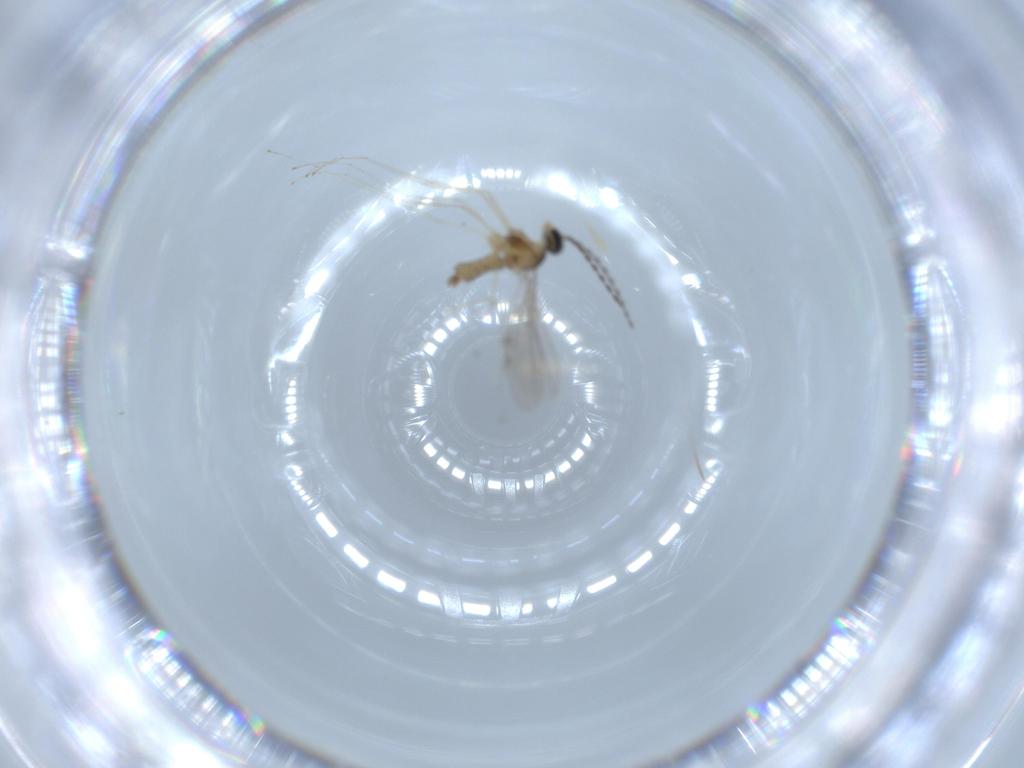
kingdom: Animalia
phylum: Arthropoda
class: Insecta
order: Diptera
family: Cecidomyiidae
